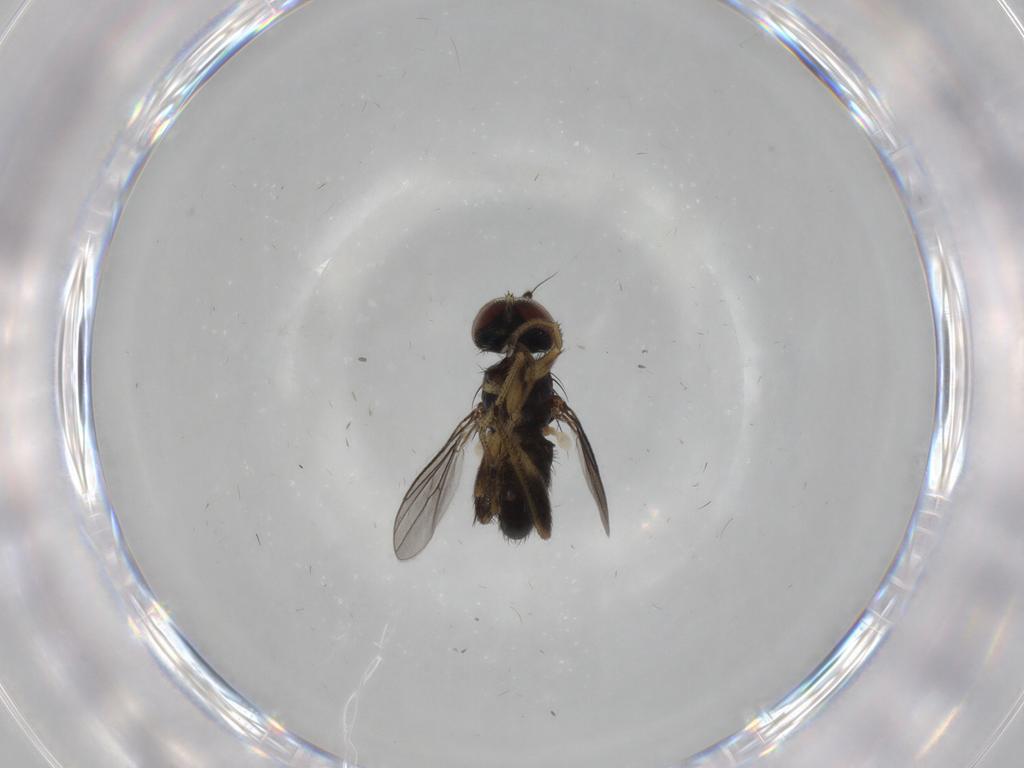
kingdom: Animalia
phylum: Arthropoda
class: Insecta
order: Diptera
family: Dolichopodidae
